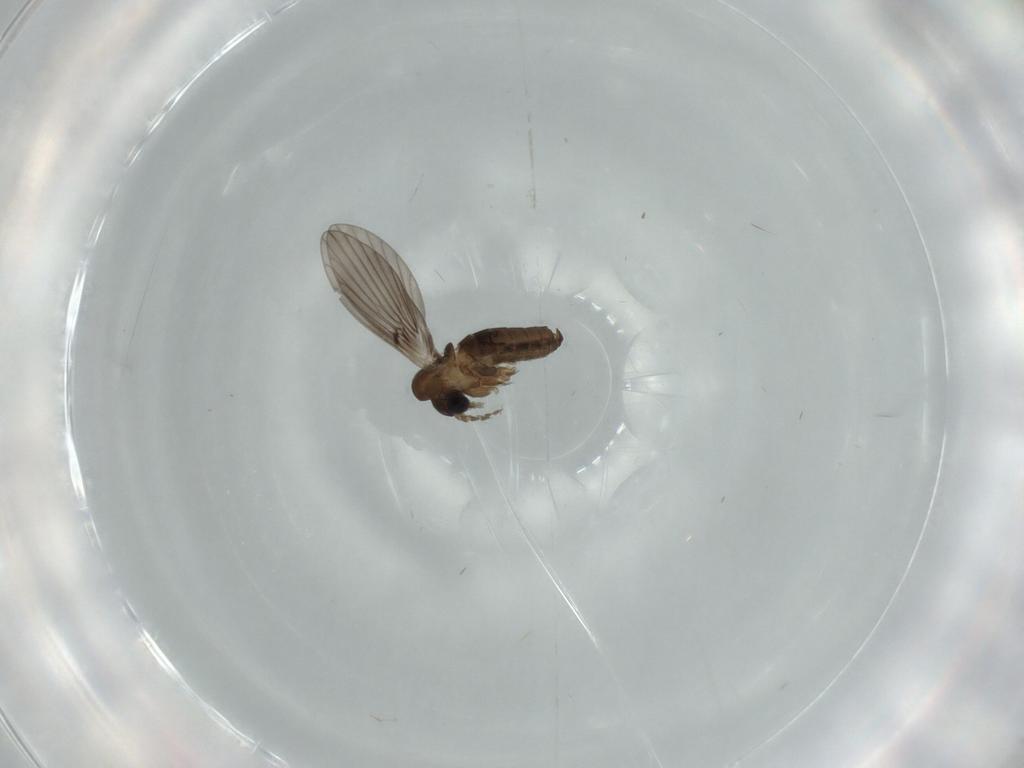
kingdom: Animalia
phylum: Arthropoda
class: Insecta
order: Diptera
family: Psychodidae
